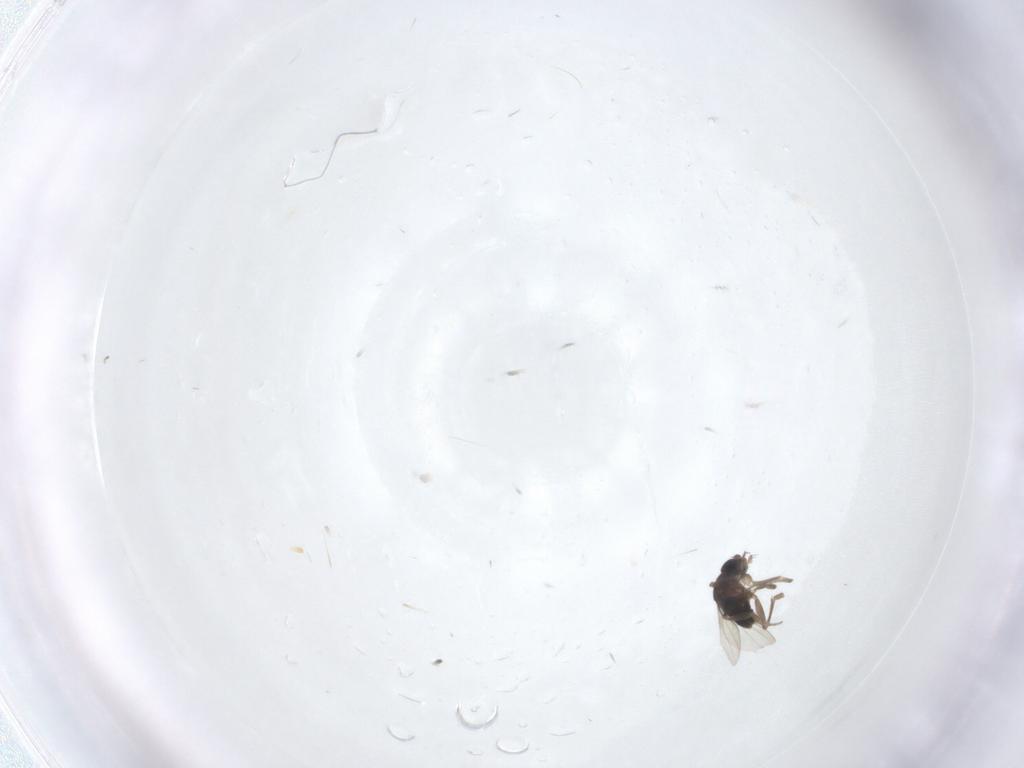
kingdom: Animalia
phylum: Arthropoda
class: Insecta
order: Diptera
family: Phoridae
